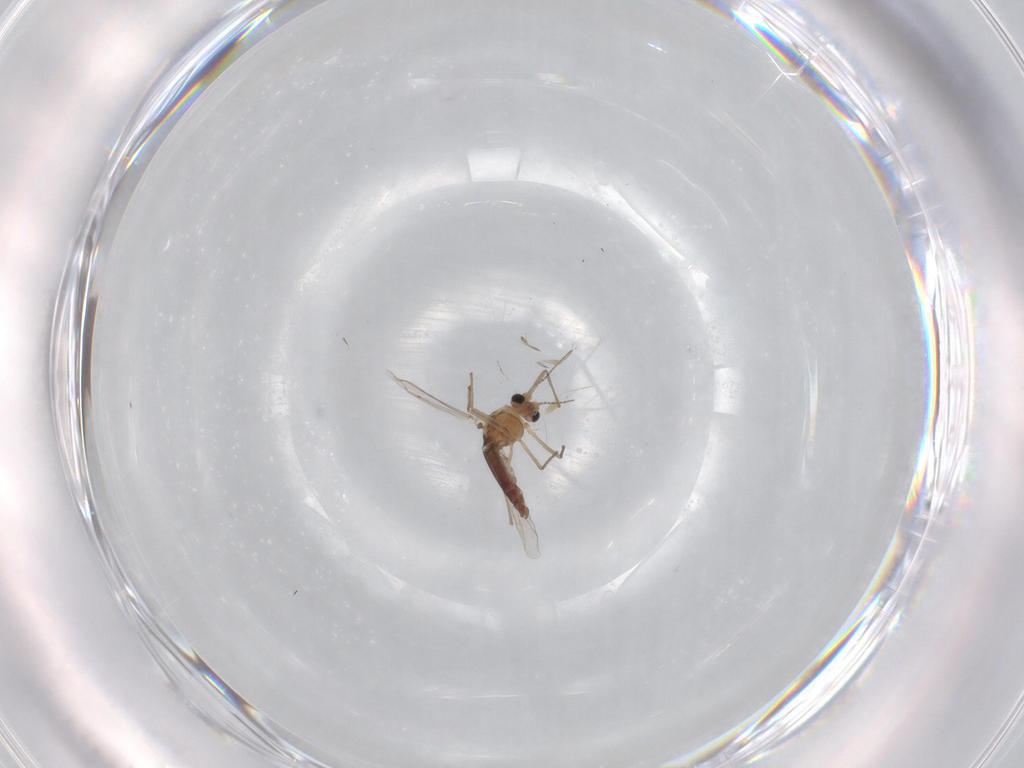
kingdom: Animalia
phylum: Arthropoda
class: Insecta
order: Diptera
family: Chironomidae
